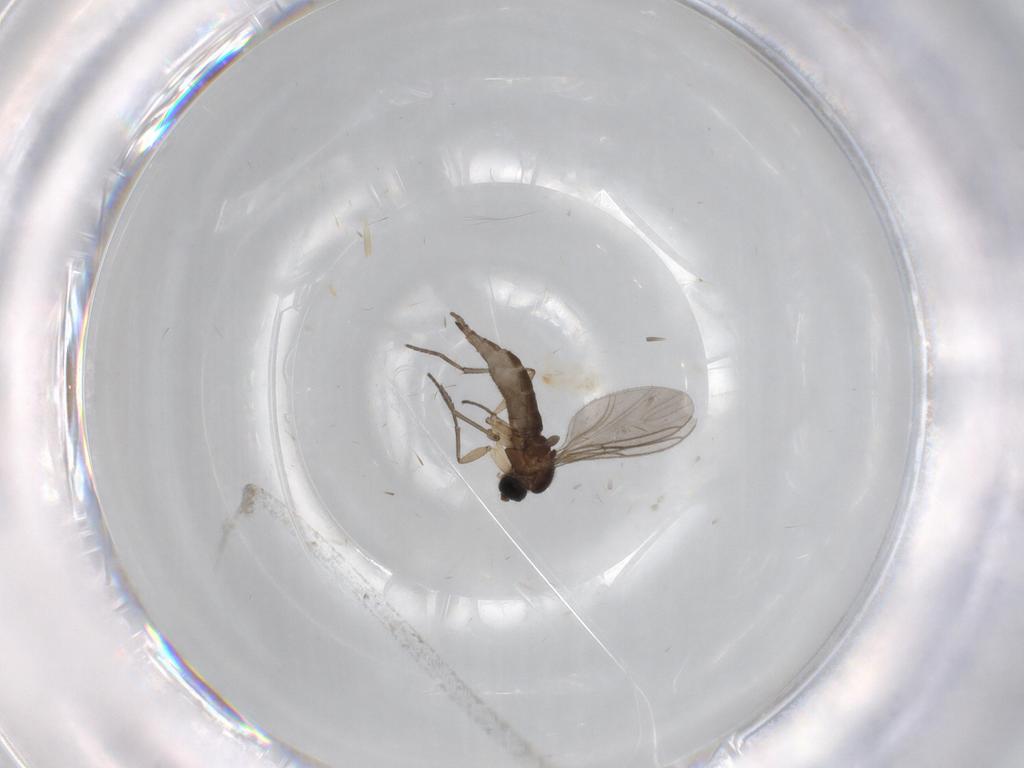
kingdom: Animalia
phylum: Arthropoda
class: Insecta
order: Diptera
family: Sciaridae
